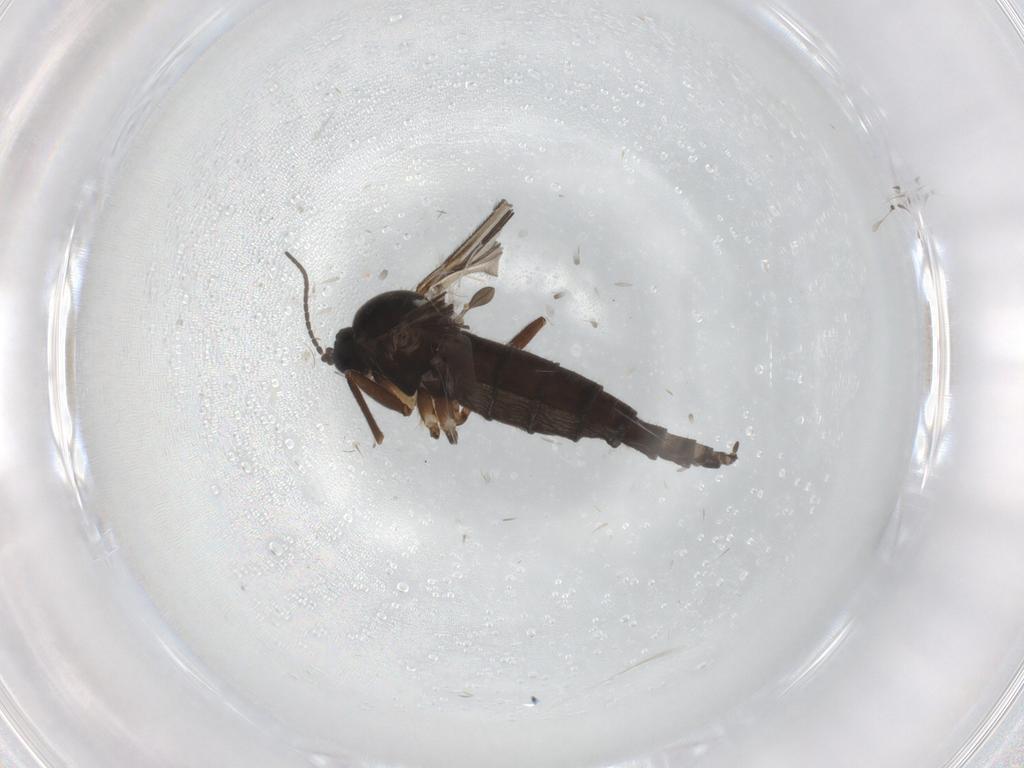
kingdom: Animalia
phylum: Arthropoda
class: Insecta
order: Diptera
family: Sciaridae
